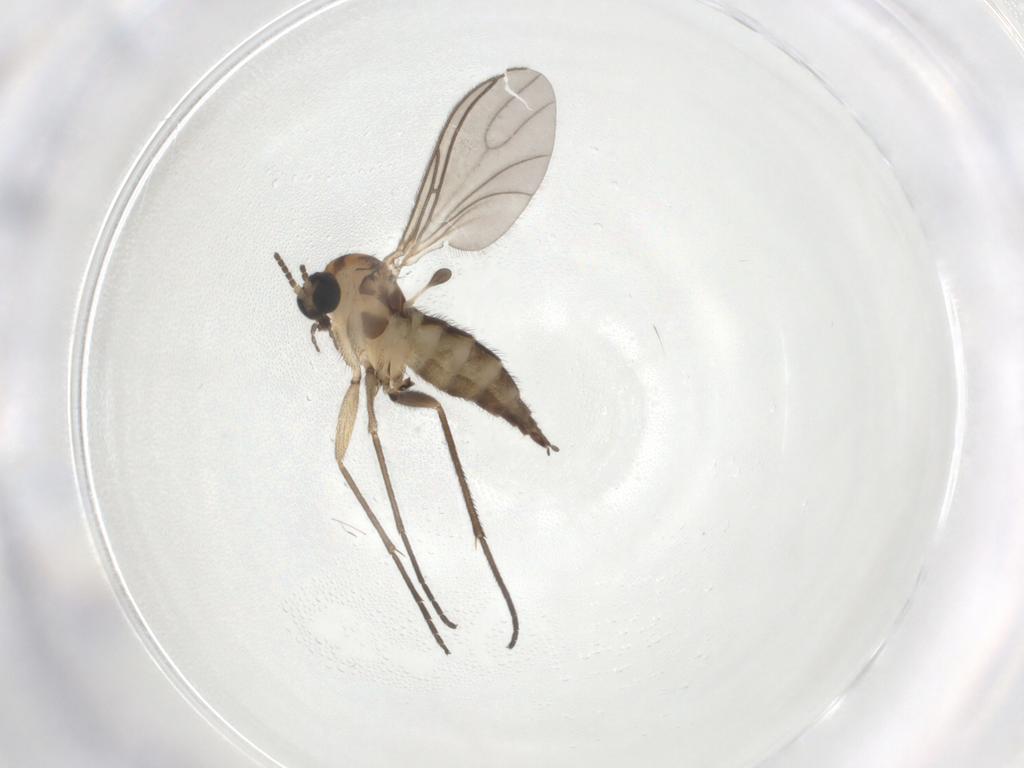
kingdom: Animalia
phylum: Arthropoda
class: Insecta
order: Diptera
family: Sciaridae
